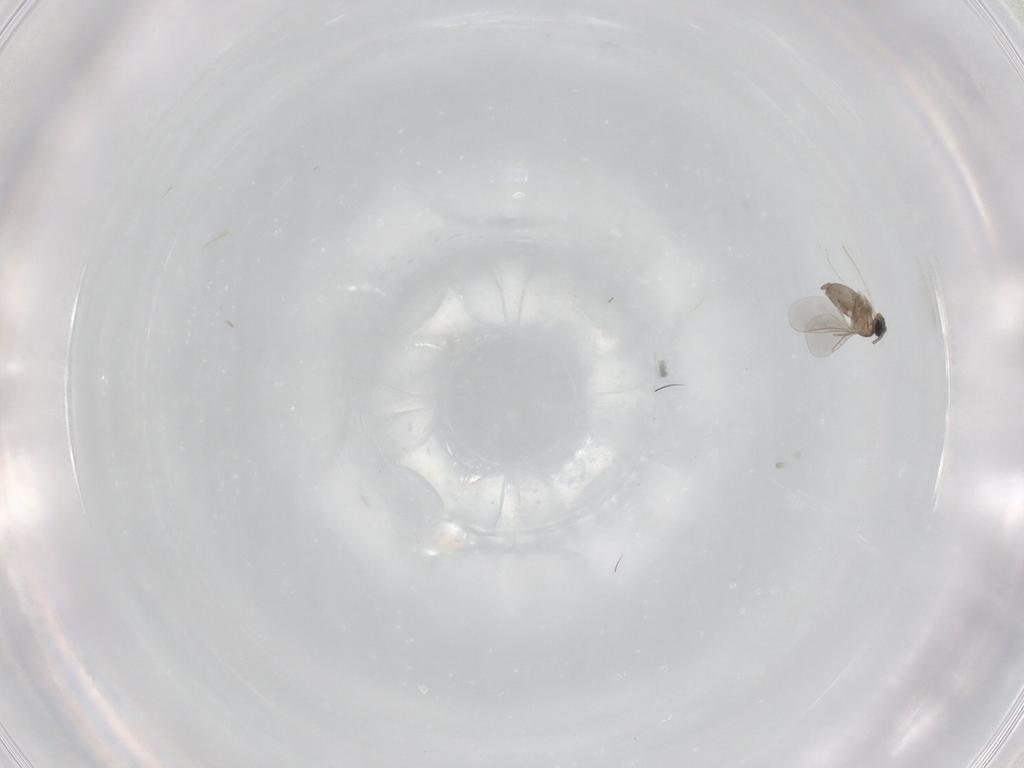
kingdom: Animalia
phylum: Arthropoda
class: Insecta
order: Diptera
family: Cecidomyiidae
